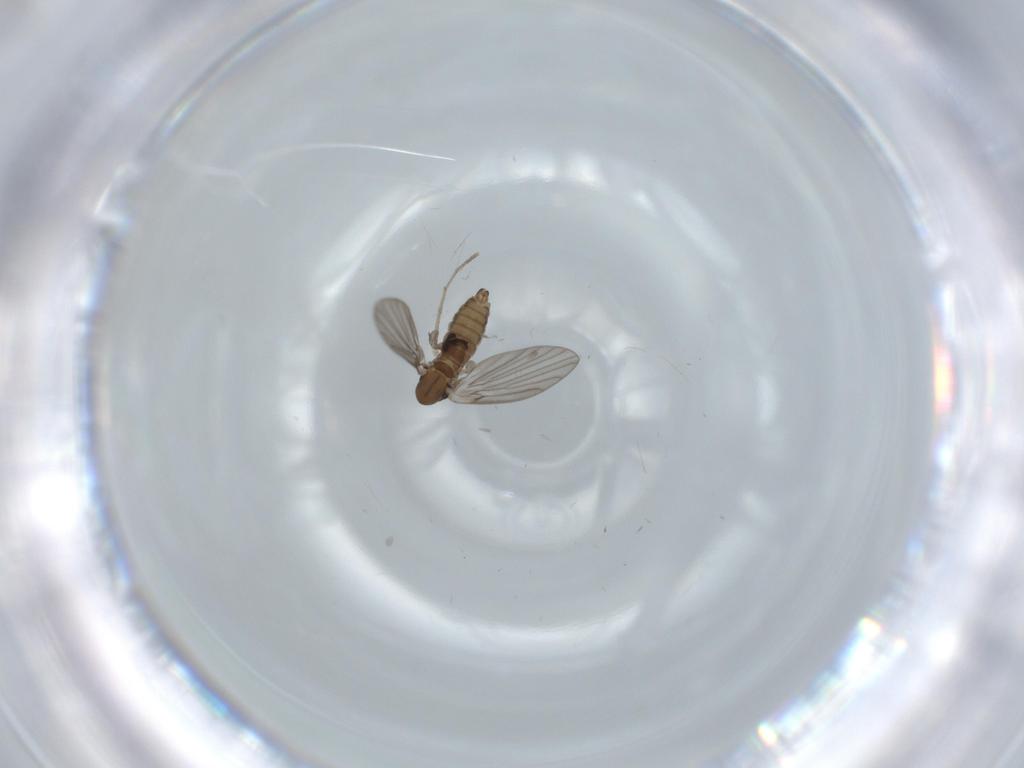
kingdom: Animalia
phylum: Arthropoda
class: Insecta
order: Diptera
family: Psychodidae
